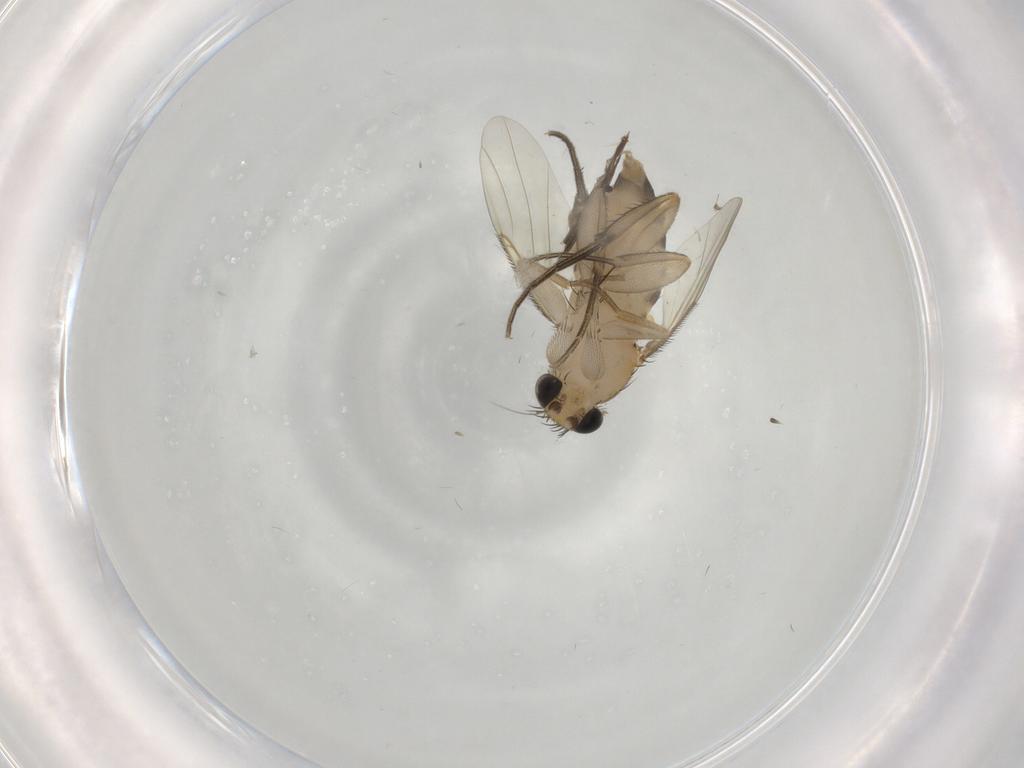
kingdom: Animalia
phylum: Arthropoda
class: Insecta
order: Diptera
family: Phoridae
